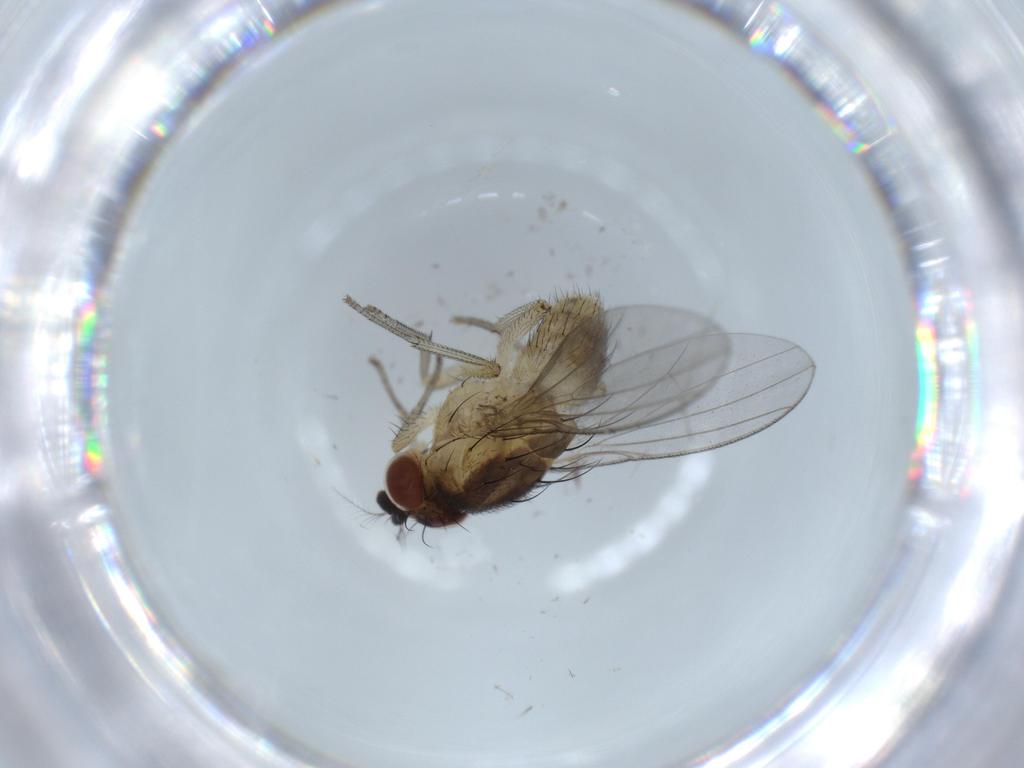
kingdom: Animalia
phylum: Arthropoda
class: Insecta
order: Diptera
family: Lauxaniidae
